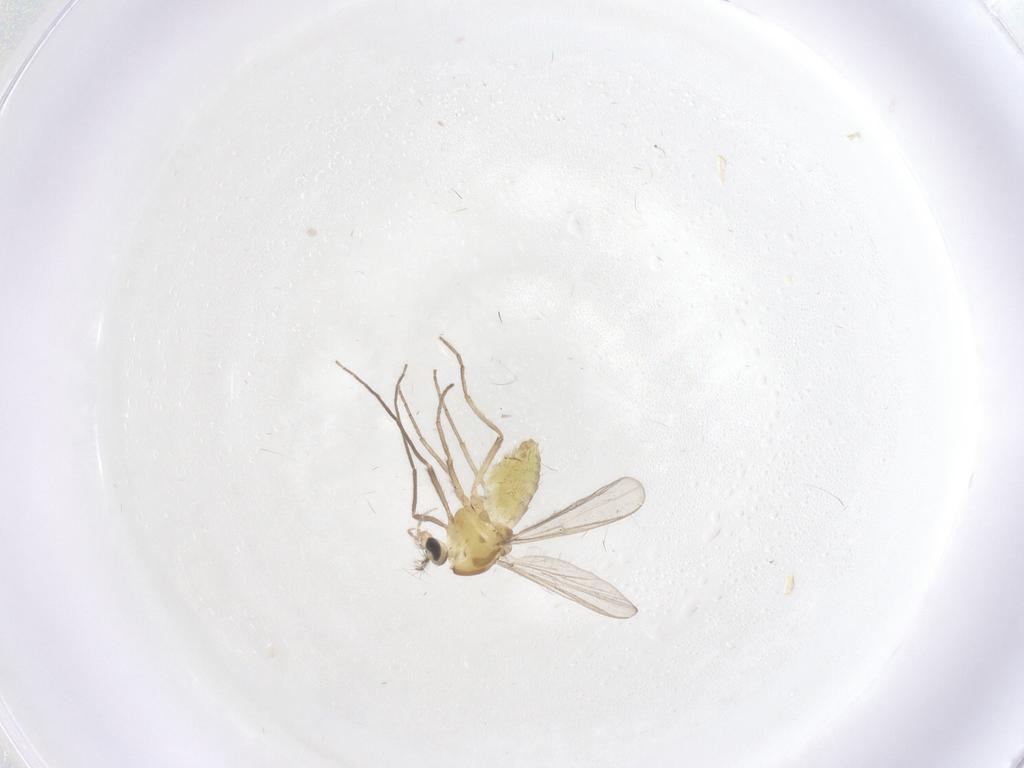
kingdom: Animalia
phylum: Arthropoda
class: Insecta
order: Diptera
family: Chironomidae
